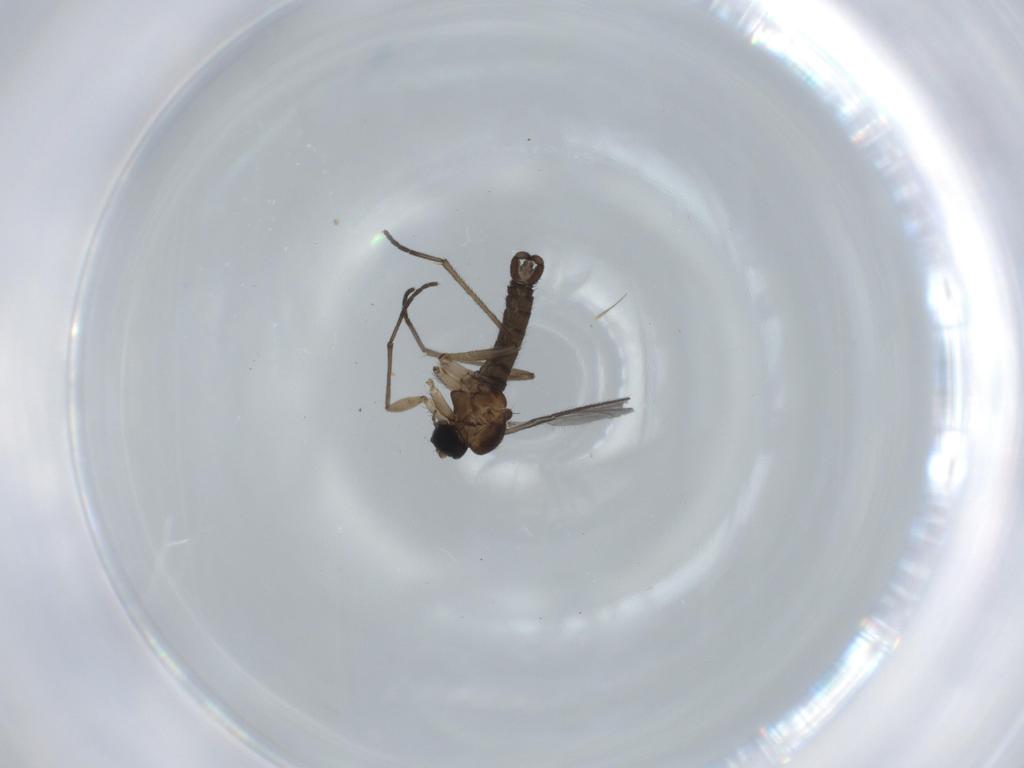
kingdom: Animalia
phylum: Arthropoda
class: Insecta
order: Diptera
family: Sciaridae
